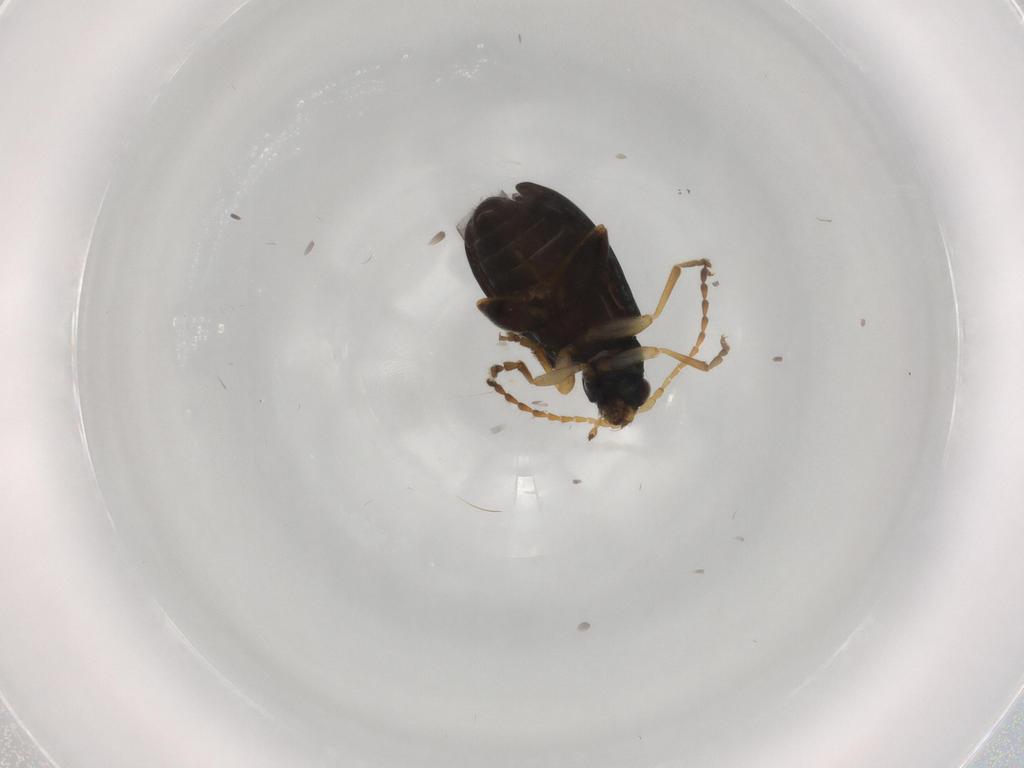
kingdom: Animalia
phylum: Arthropoda
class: Insecta
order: Coleoptera
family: Chrysomelidae
